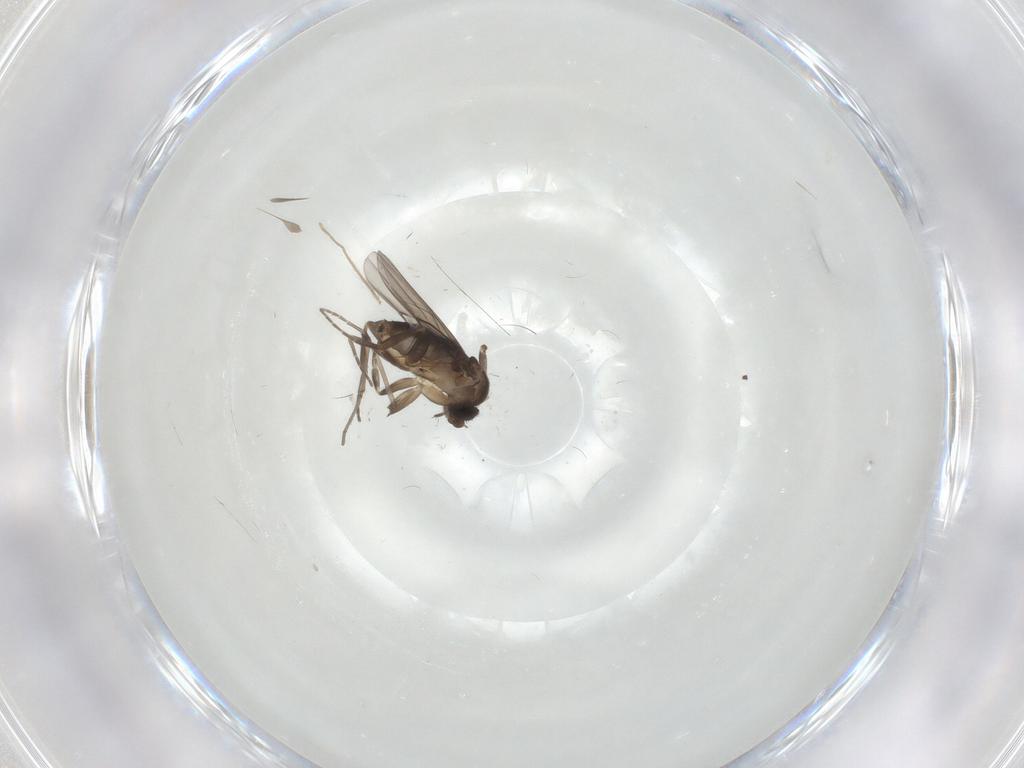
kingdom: Animalia
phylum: Arthropoda
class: Insecta
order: Diptera
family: Cecidomyiidae
